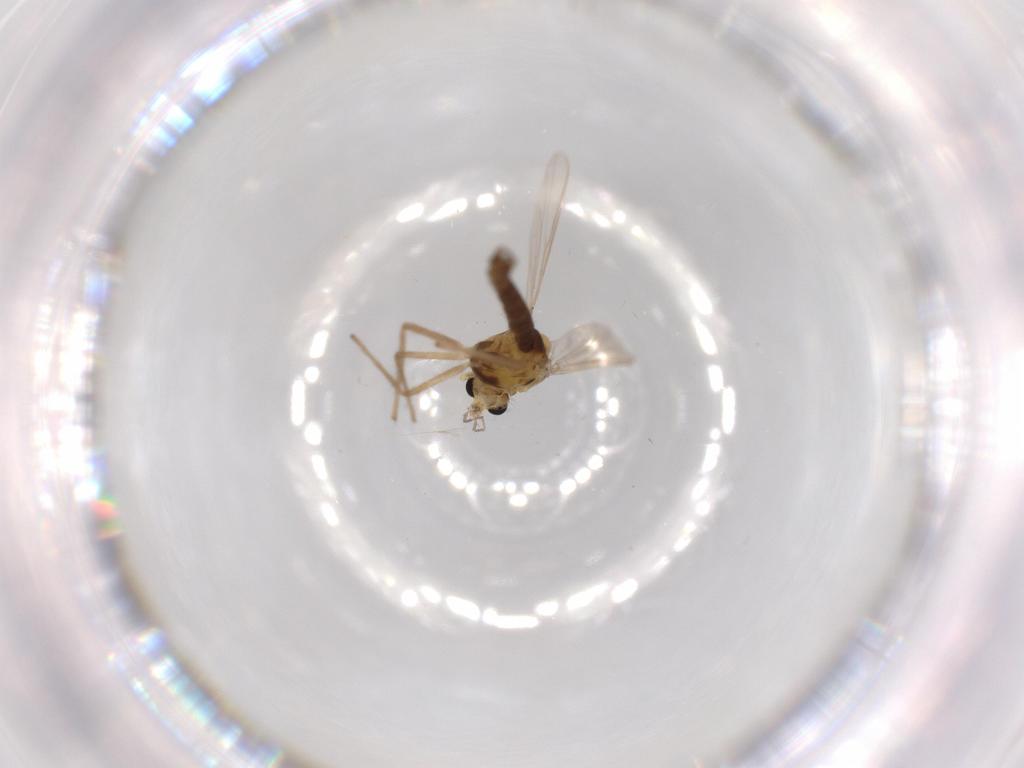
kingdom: Animalia
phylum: Arthropoda
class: Insecta
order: Diptera
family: Chironomidae
